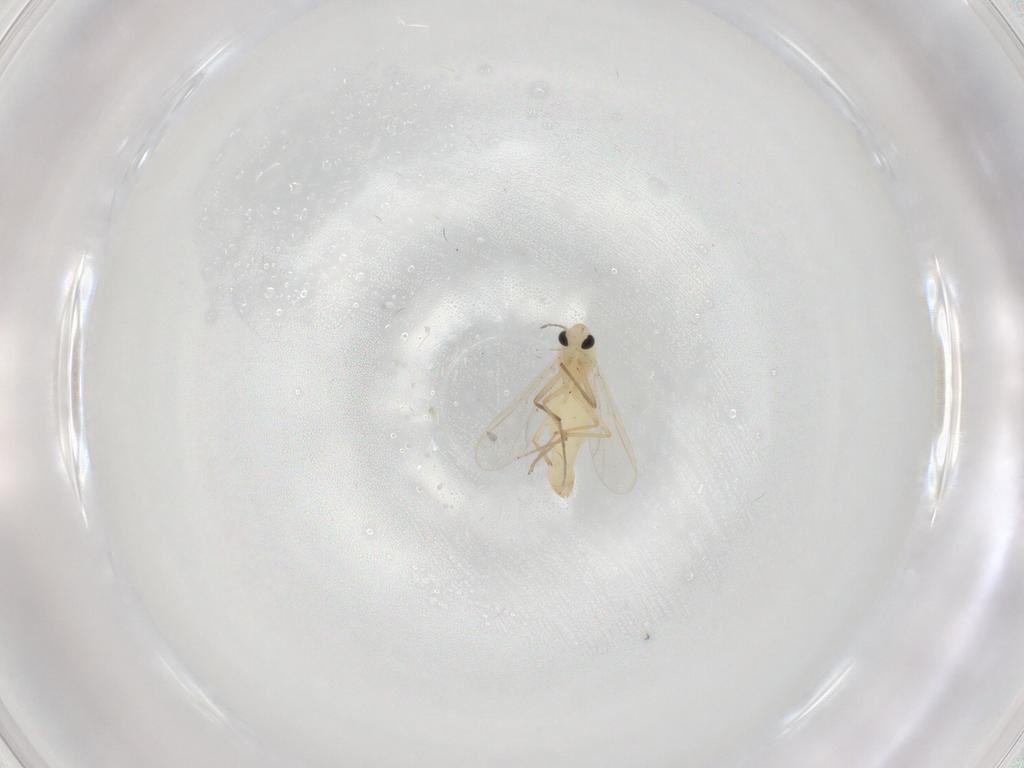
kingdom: Animalia
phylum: Arthropoda
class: Insecta
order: Diptera
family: Chironomidae
